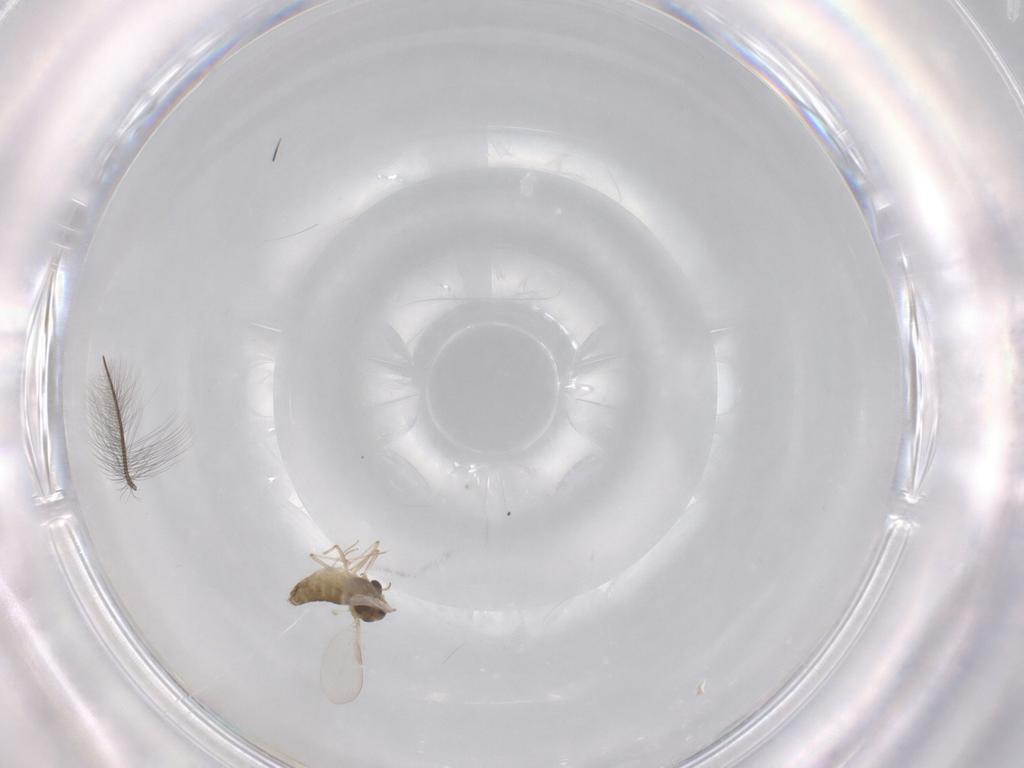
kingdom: Animalia
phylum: Arthropoda
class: Insecta
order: Diptera
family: Chironomidae
